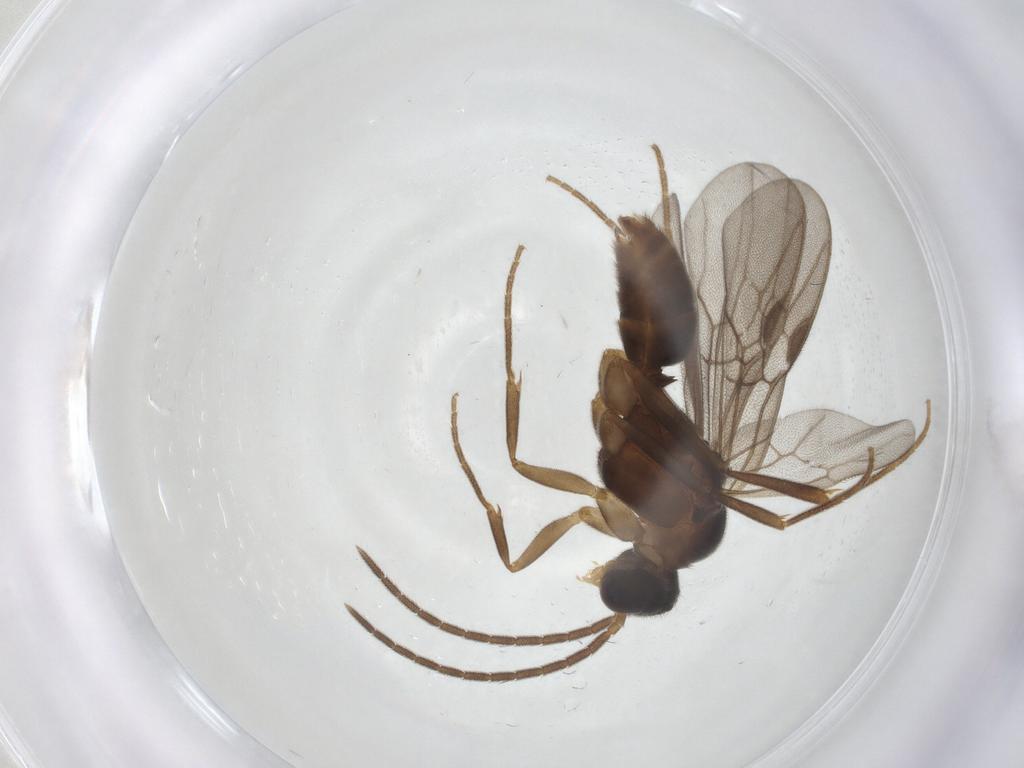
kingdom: Animalia
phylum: Arthropoda
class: Insecta
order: Hymenoptera
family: Formicidae
